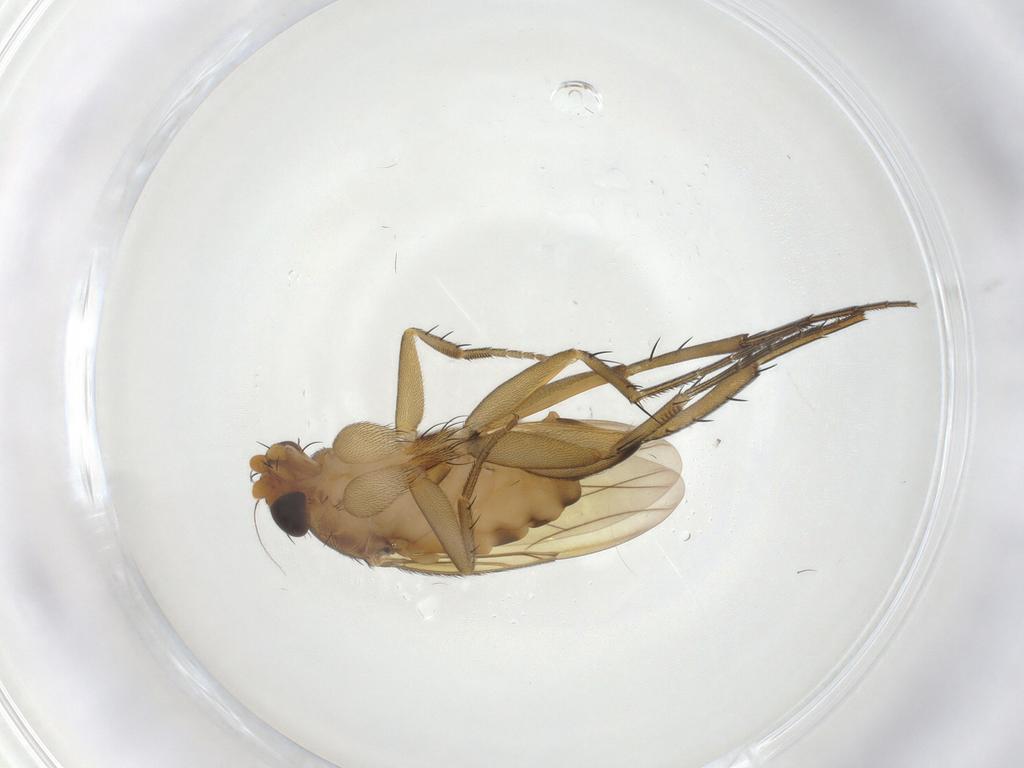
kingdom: Animalia
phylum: Arthropoda
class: Insecta
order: Diptera
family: Phoridae
